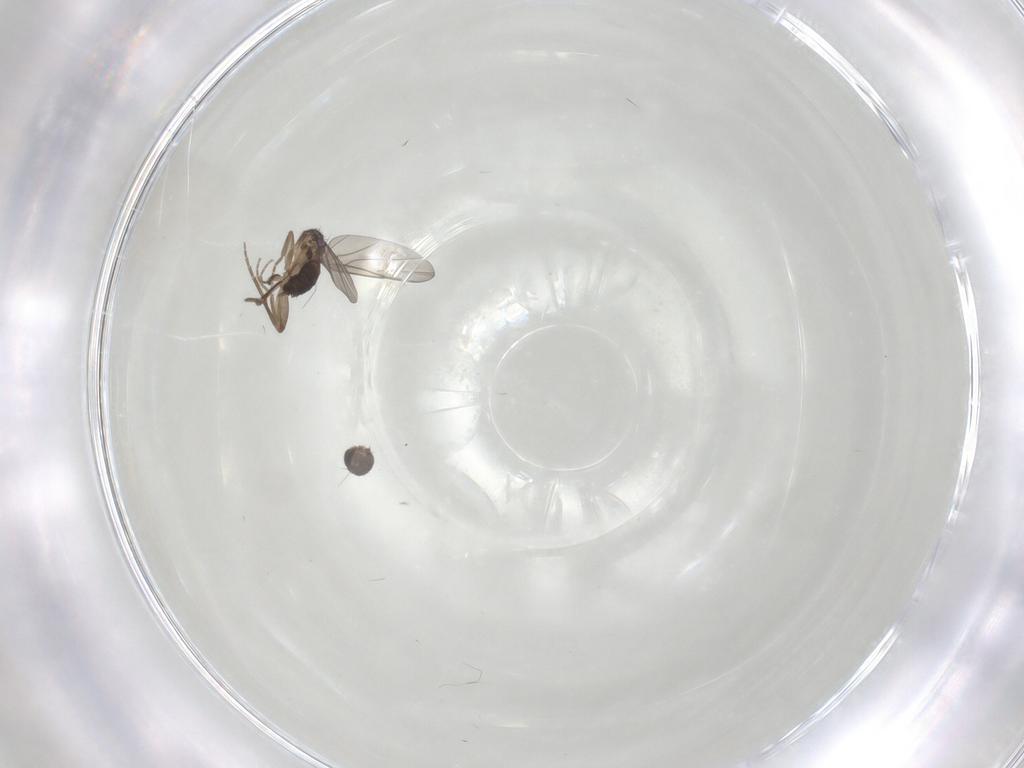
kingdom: Animalia
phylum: Arthropoda
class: Insecta
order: Diptera
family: Phoridae
